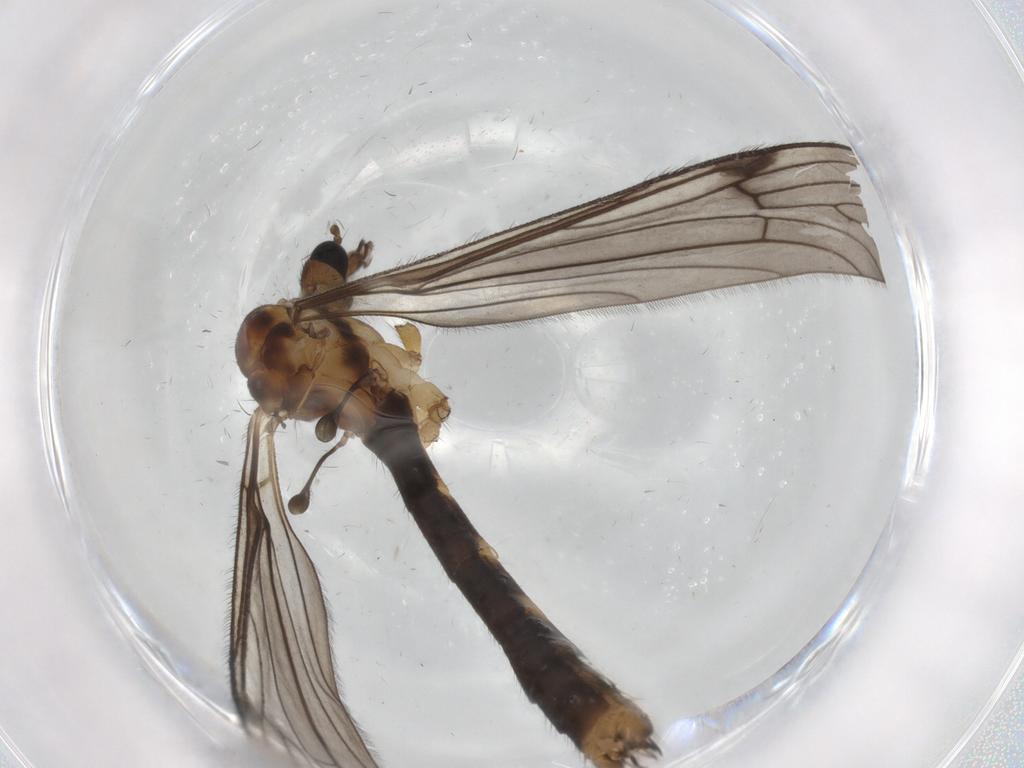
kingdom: Animalia
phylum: Arthropoda
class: Insecta
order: Diptera
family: Limoniidae
